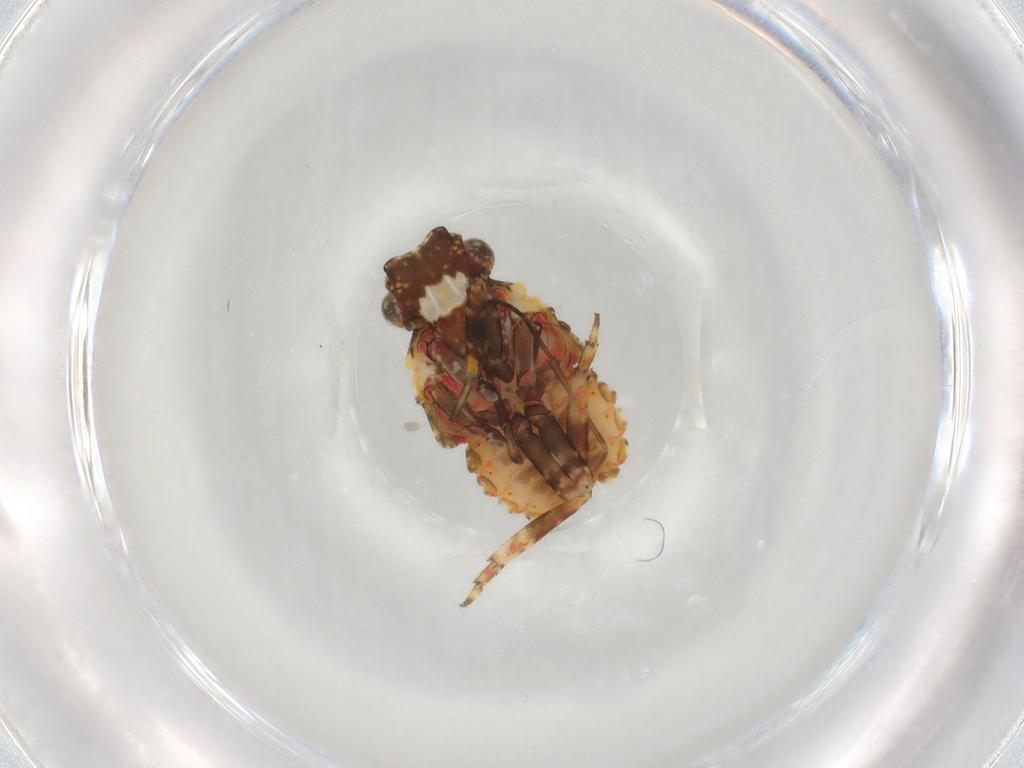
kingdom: Animalia
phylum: Arthropoda
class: Insecta
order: Hemiptera
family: Fulgoridae
